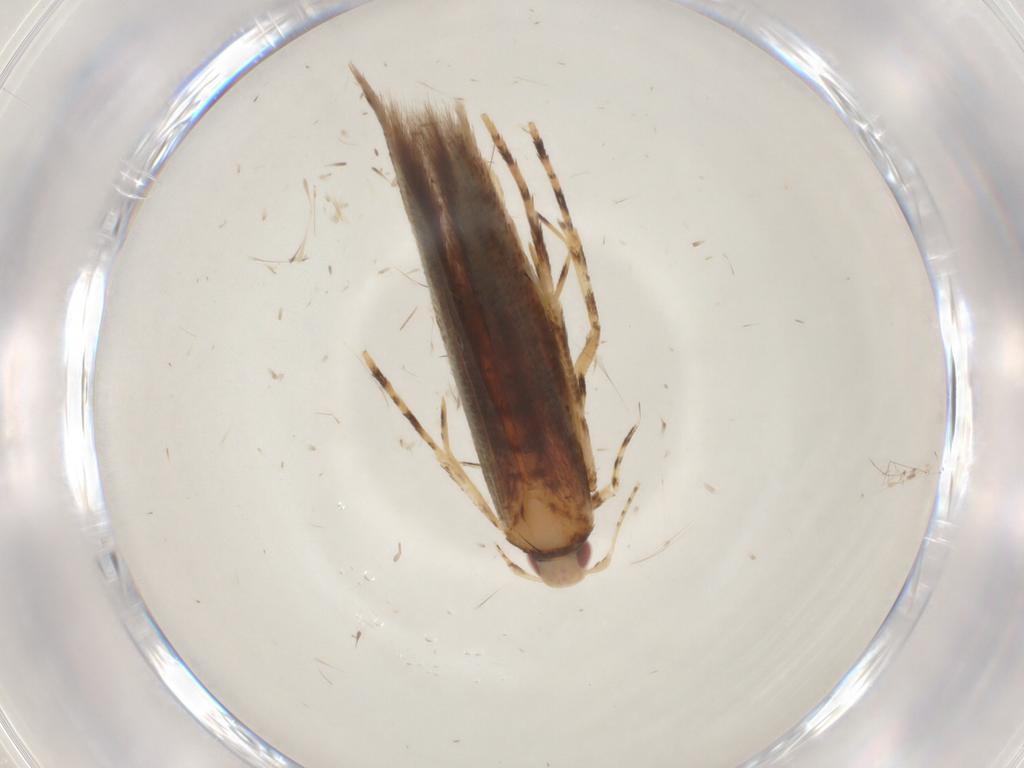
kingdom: Animalia
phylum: Arthropoda
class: Insecta
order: Lepidoptera
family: Cosmopterigidae
